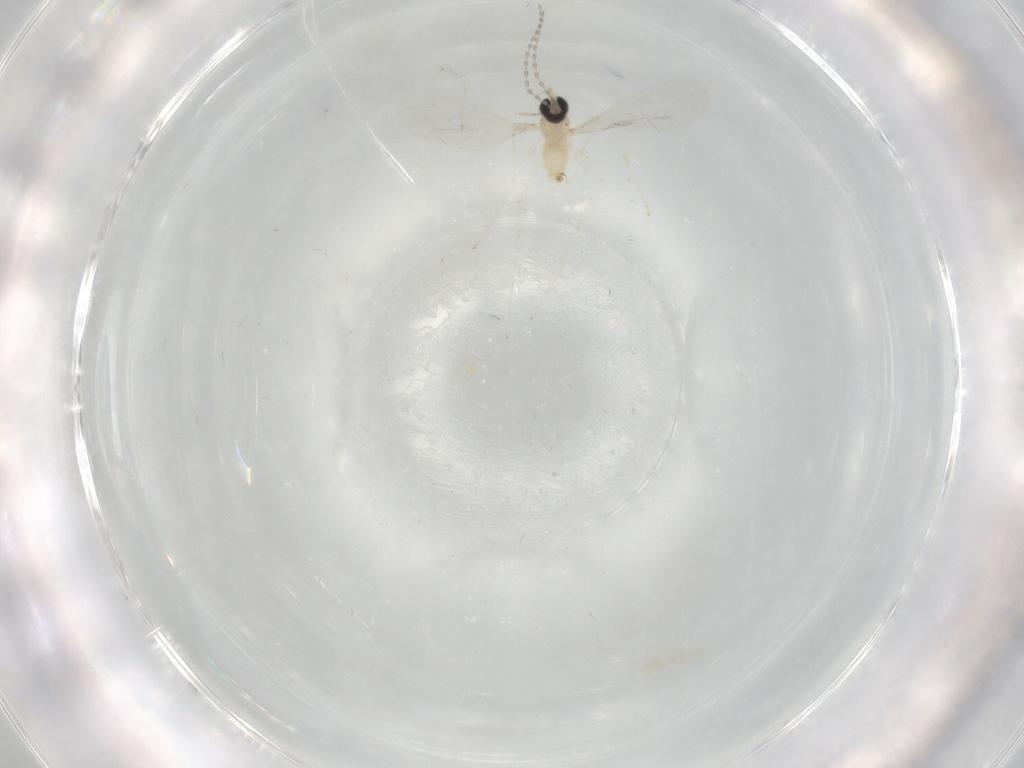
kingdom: Animalia
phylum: Arthropoda
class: Insecta
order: Diptera
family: Cecidomyiidae
